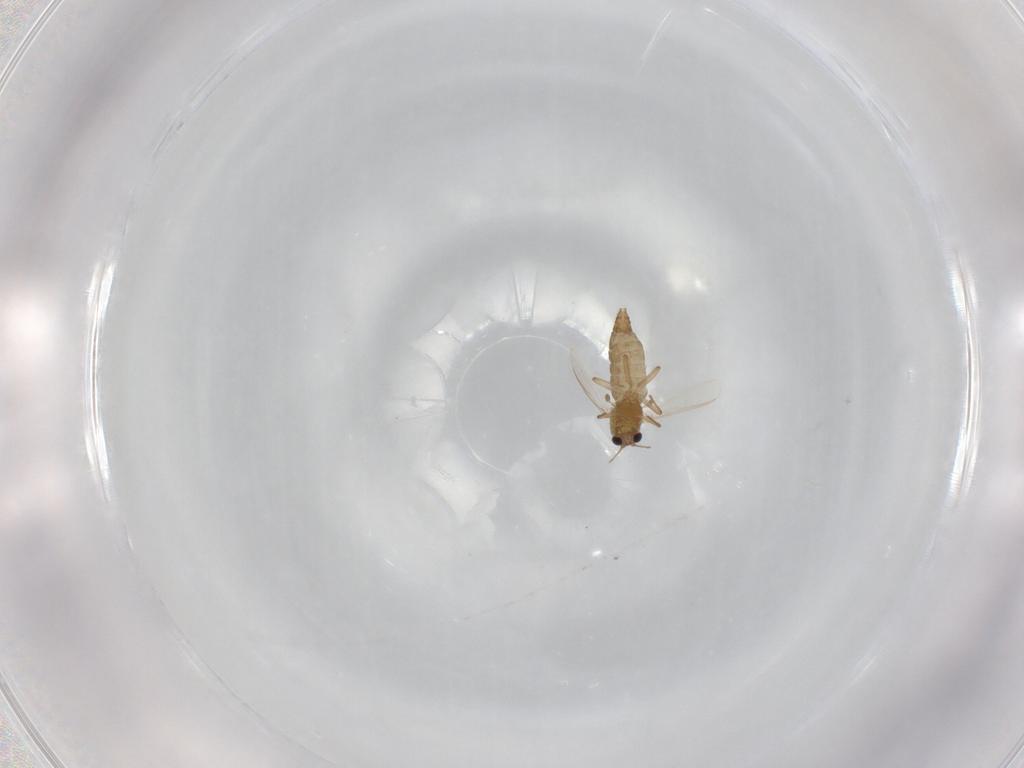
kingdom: Animalia
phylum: Arthropoda
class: Insecta
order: Diptera
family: Chironomidae
